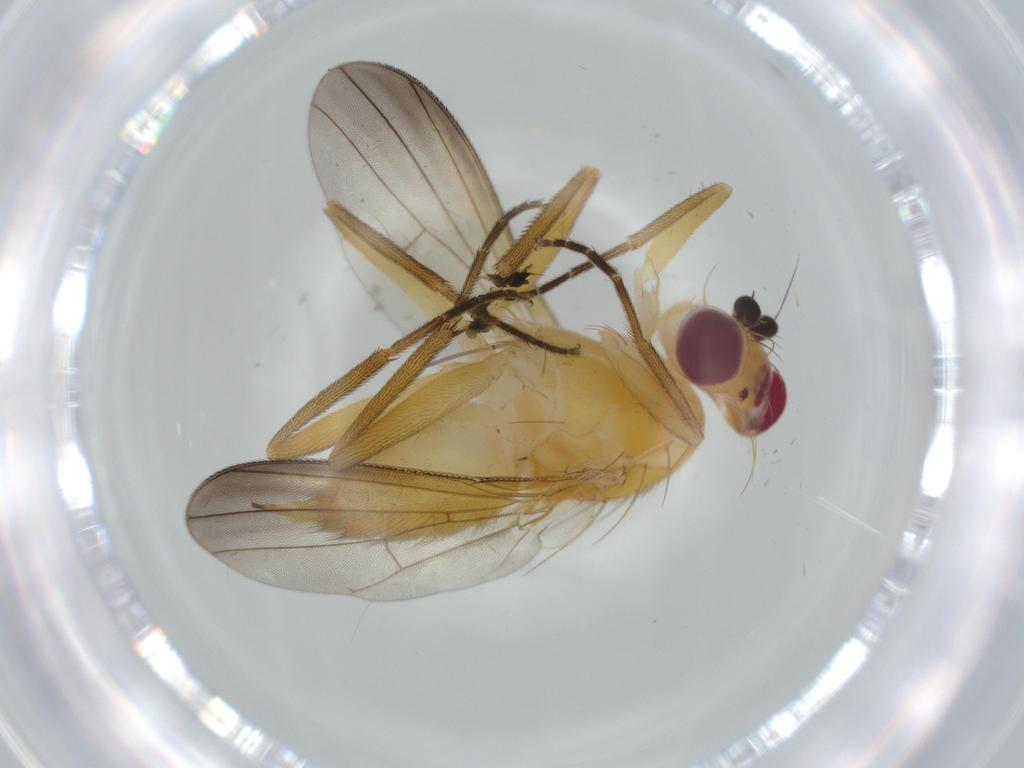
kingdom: Animalia
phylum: Arthropoda
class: Insecta
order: Diptera
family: Clusiidae
